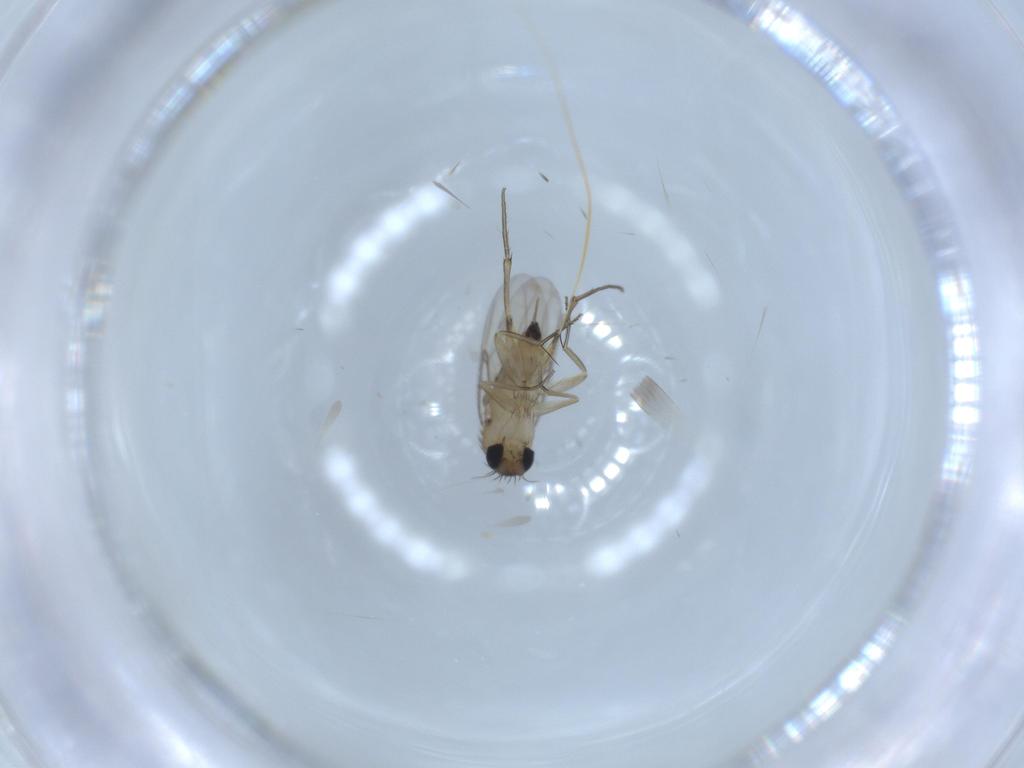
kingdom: Animalia
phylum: Arthropoda
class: Insecta
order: Diptera
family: Phoridae
